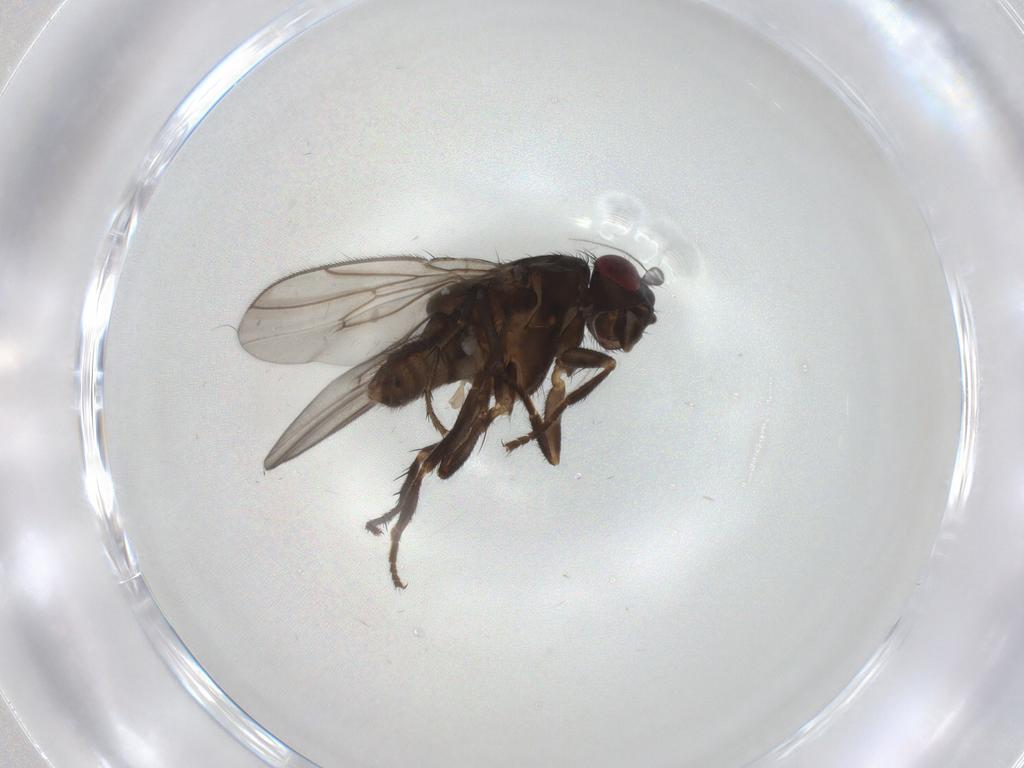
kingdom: Animalia
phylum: Arthropoda
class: Insecta
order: Diptera
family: Sphaeroceridae
